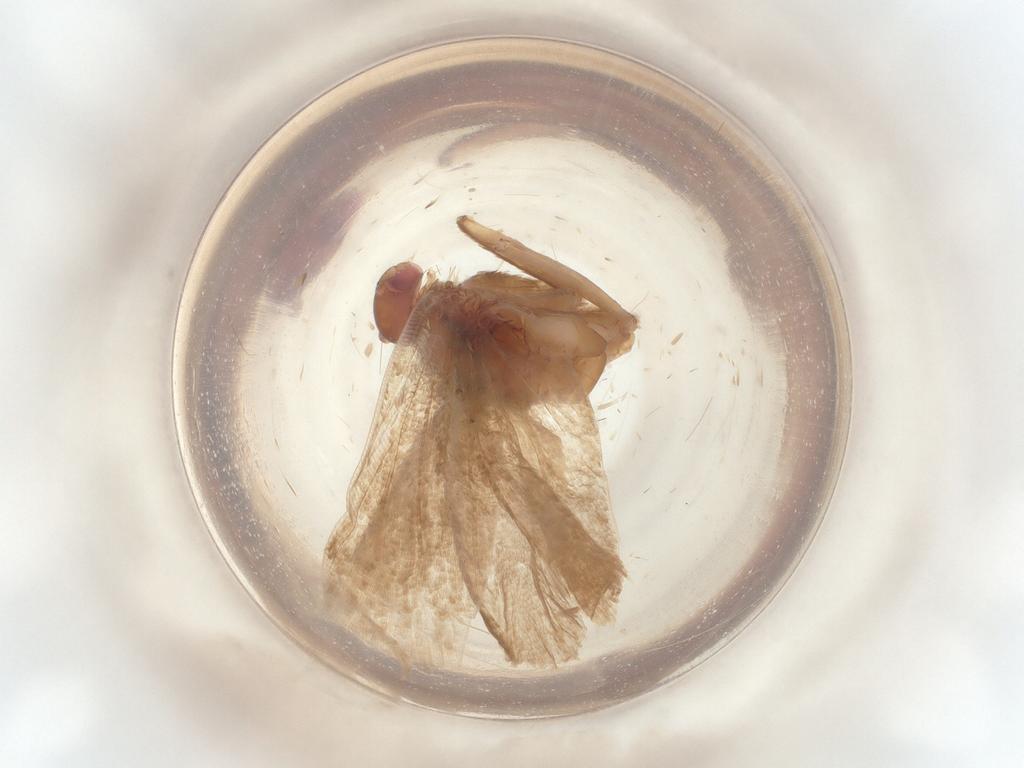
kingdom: Animalia
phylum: Arthropoda
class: Insecta
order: Lepidoptera
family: Gelechiidae
